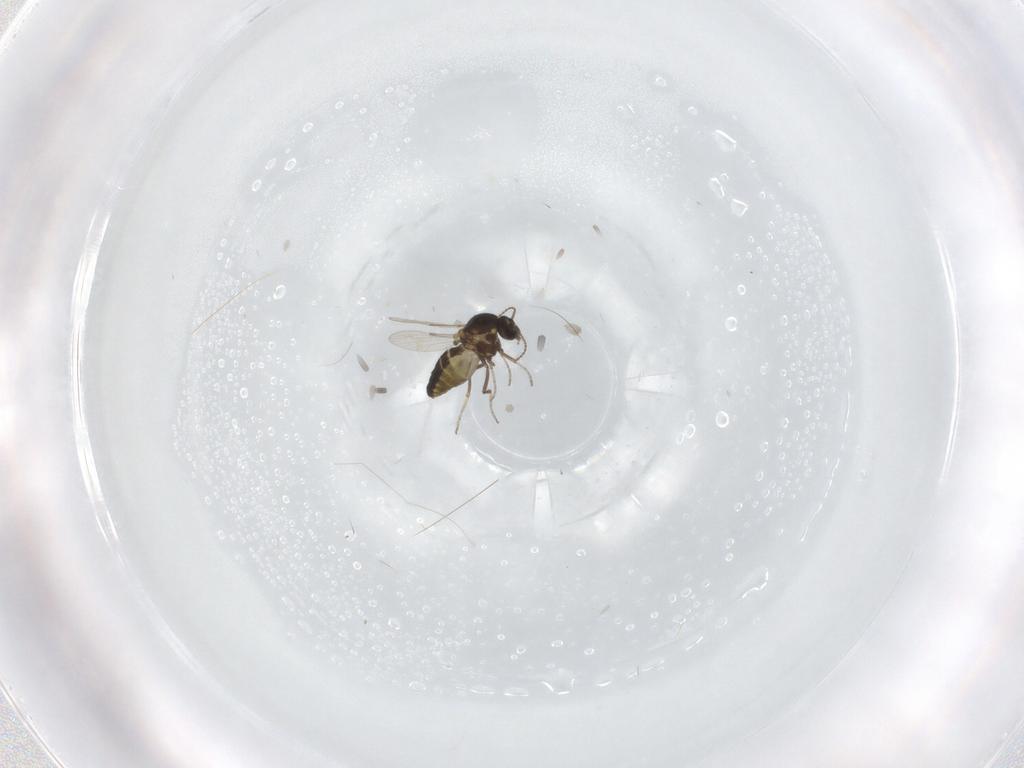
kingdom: Animalia
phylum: Arthropoda
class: Insecta
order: Diptera
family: Ceratopogonidae
